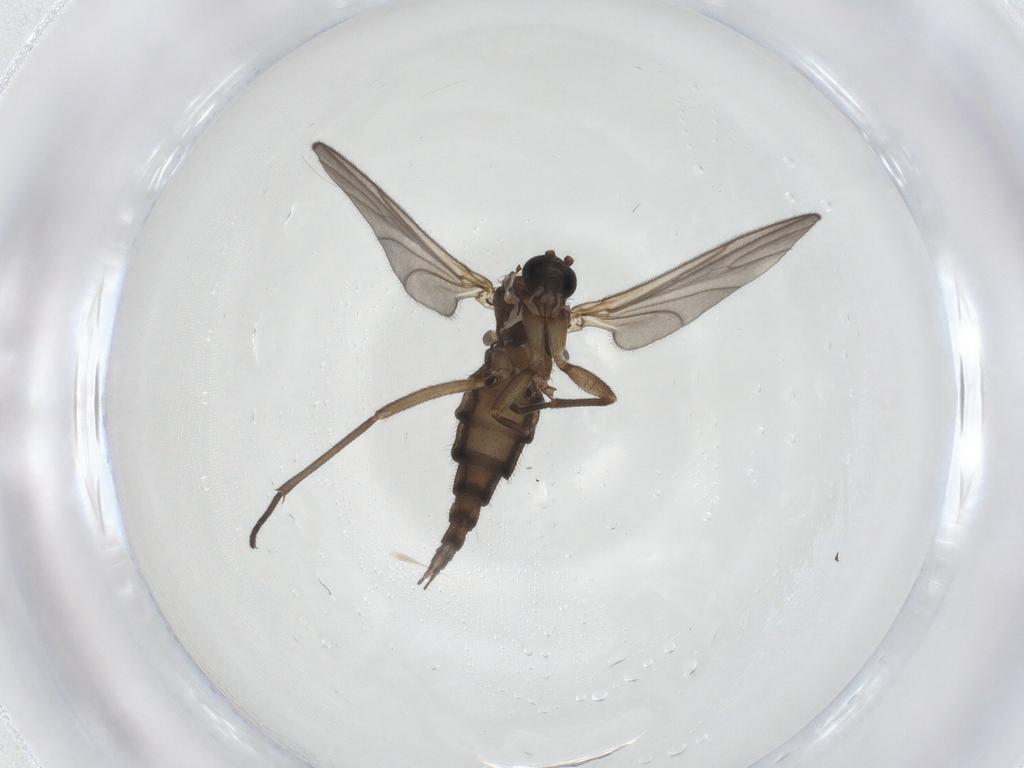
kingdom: Animalia
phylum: Arthropoda
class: Insecta
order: Diptera
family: Sciaridae
